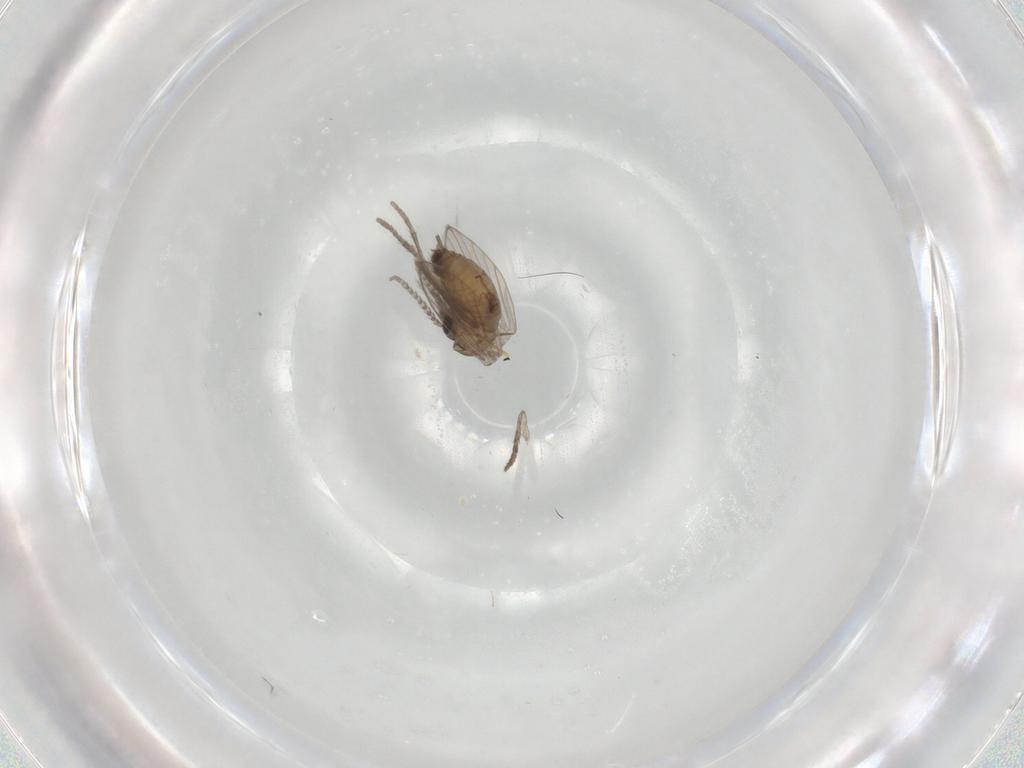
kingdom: Animalia
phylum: Arthropoda
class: Insecta
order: Diptera
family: Psychodidae
